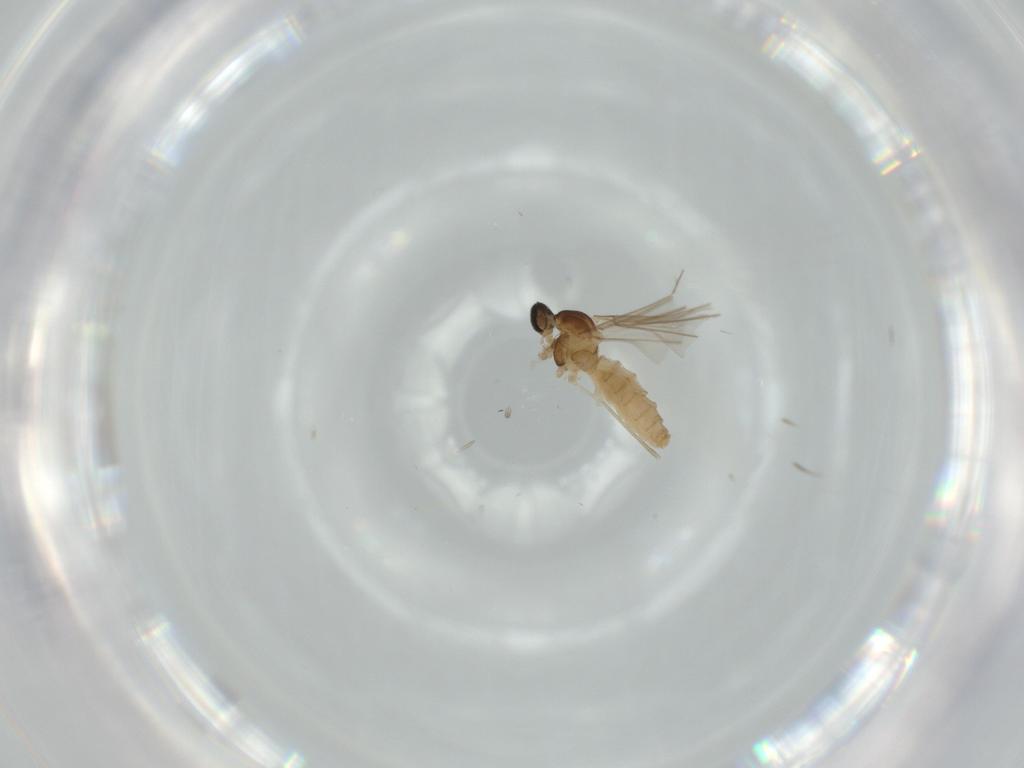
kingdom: Animalia
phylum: Arthropoda
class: Insecta
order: Diptera
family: Cecidomyiidae
